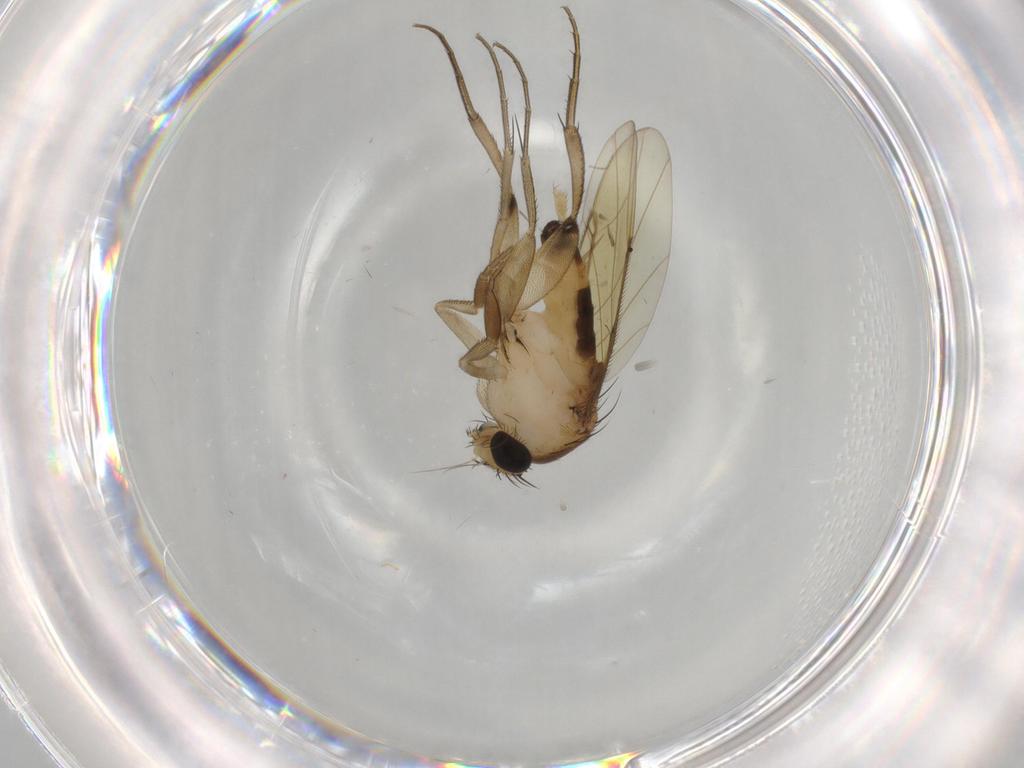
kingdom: Animalia
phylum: Arthropoda
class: Insecta
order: Diptera
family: Phoridae
